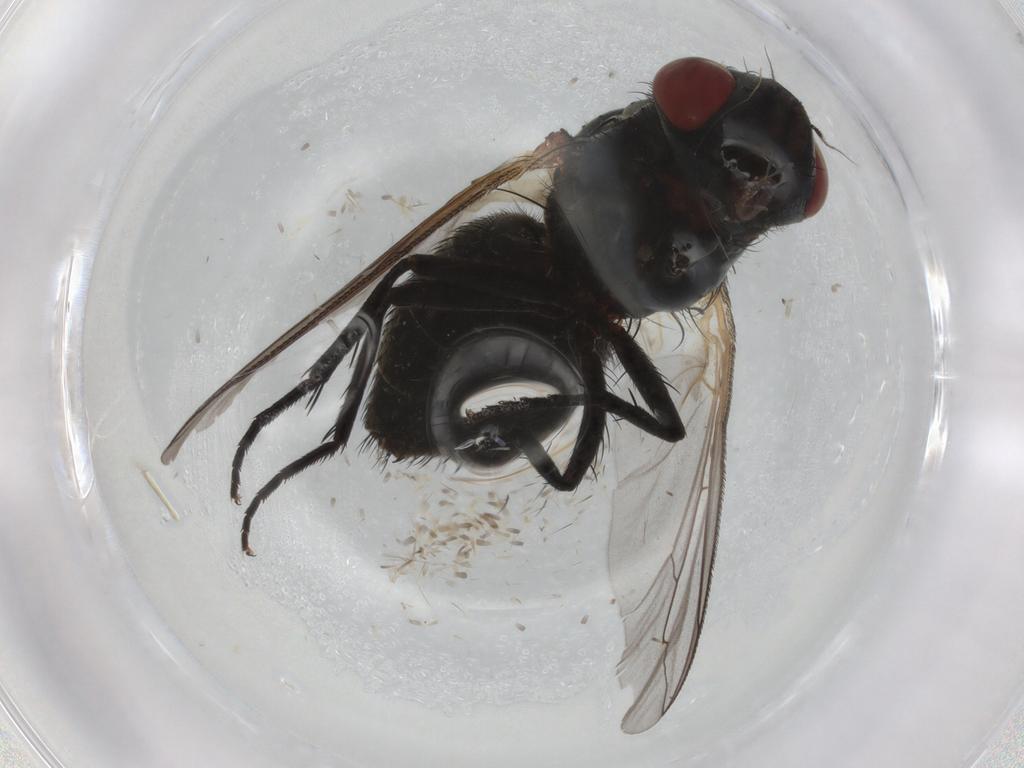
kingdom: Animalia
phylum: Arthropoda
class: Insecta
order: Diptera
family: Sarcophagidae
